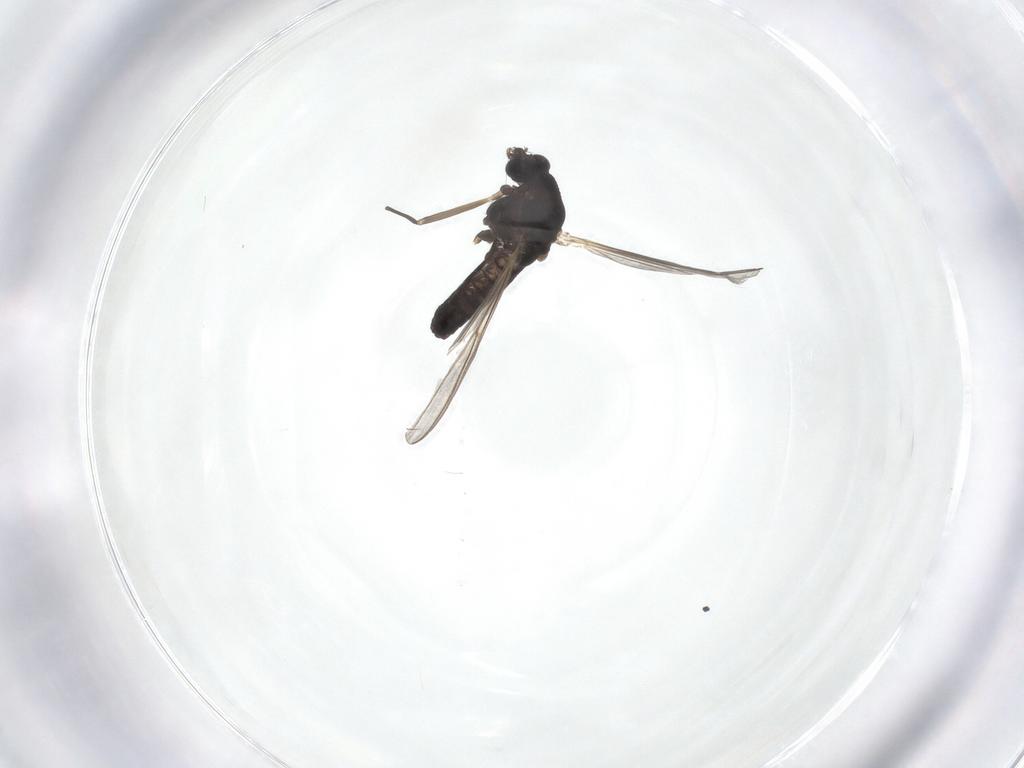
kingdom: Animalia
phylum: Arthropoda
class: Insecta
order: Diptera
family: Chironomidae
